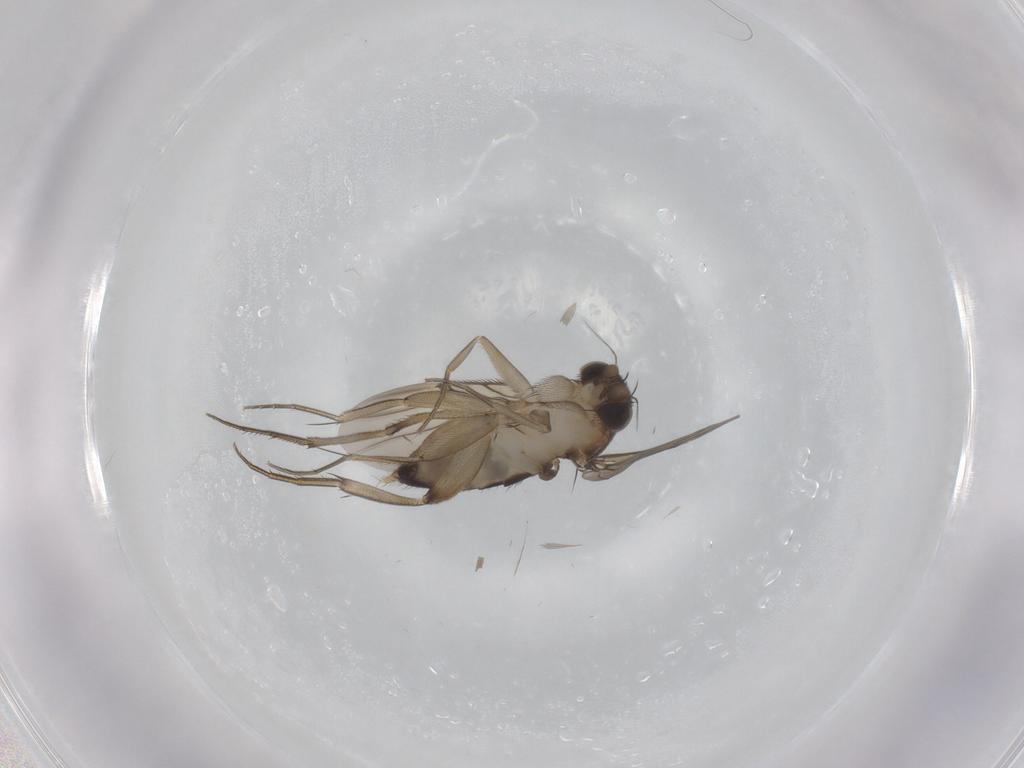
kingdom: Animalia
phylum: Arthropoda
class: Insecta
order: Diptera
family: Phoridae
